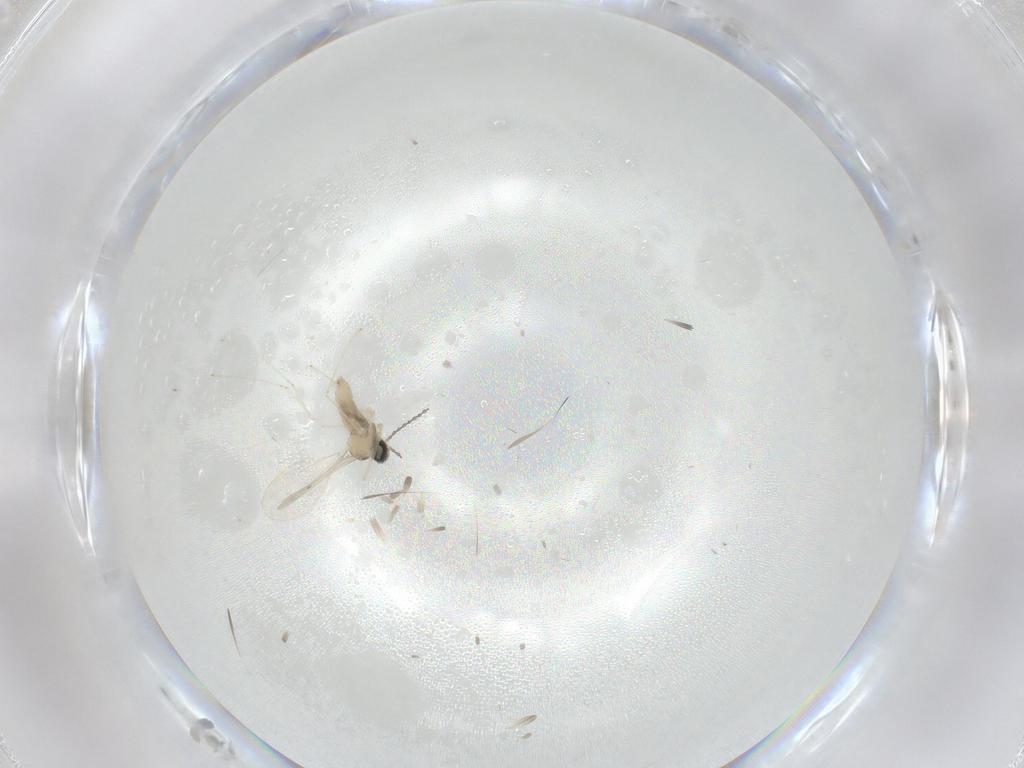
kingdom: Animalia
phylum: Arthropoda
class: Insecta
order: Diptera
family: Cecidomyiidae
